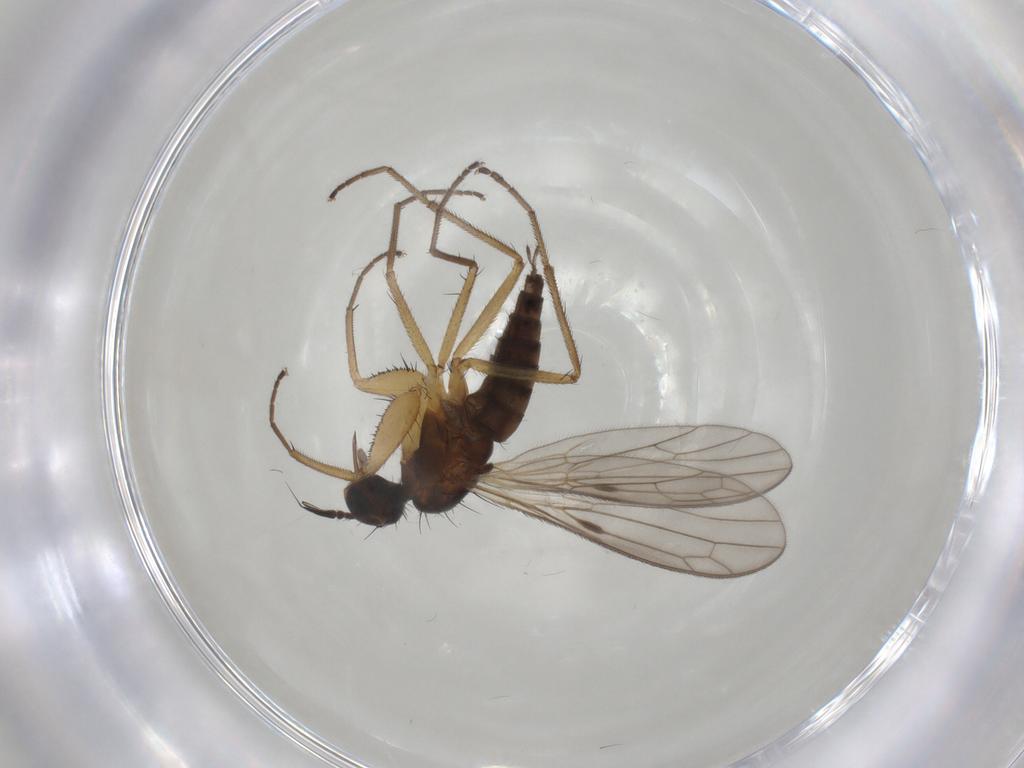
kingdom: Animalia
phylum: Arthropoda
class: Insecta
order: Diptera
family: Empididae
